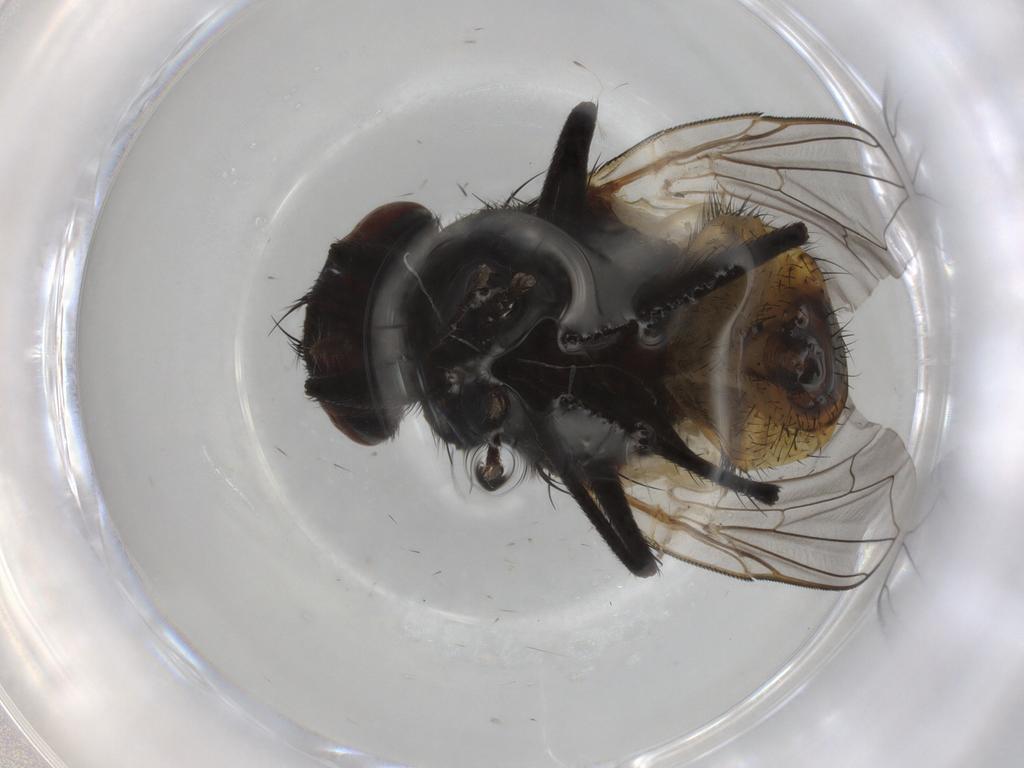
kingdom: Animalia
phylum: Arthropoda
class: Insecta
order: Diptera
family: Muscidae
